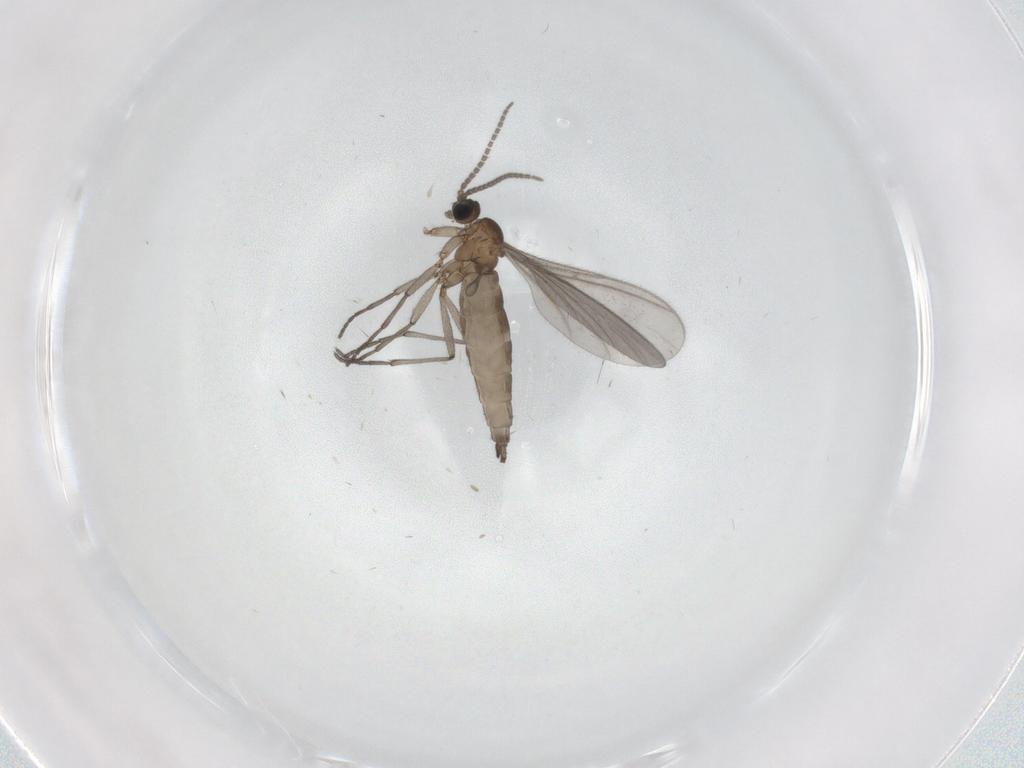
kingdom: Animalia
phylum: Arthropoda
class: Insecta
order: Diptera
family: Sciaridae
